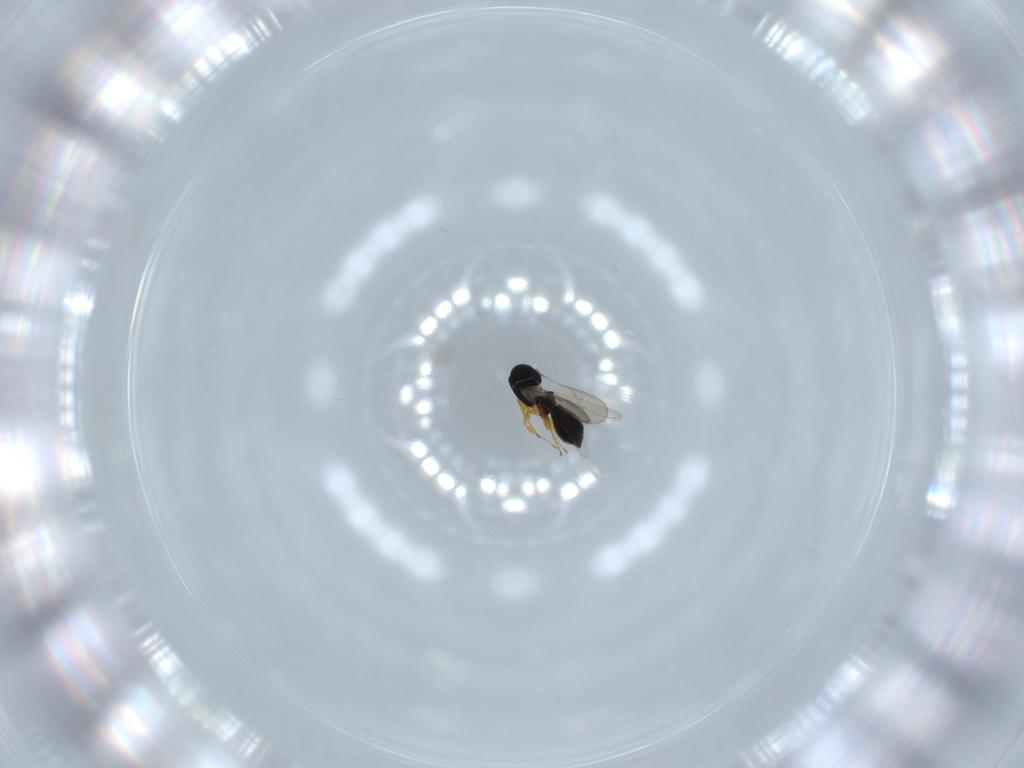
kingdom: Animalia
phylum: Arthropoda
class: Insecta
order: Hymenoptera
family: Scelionidae
